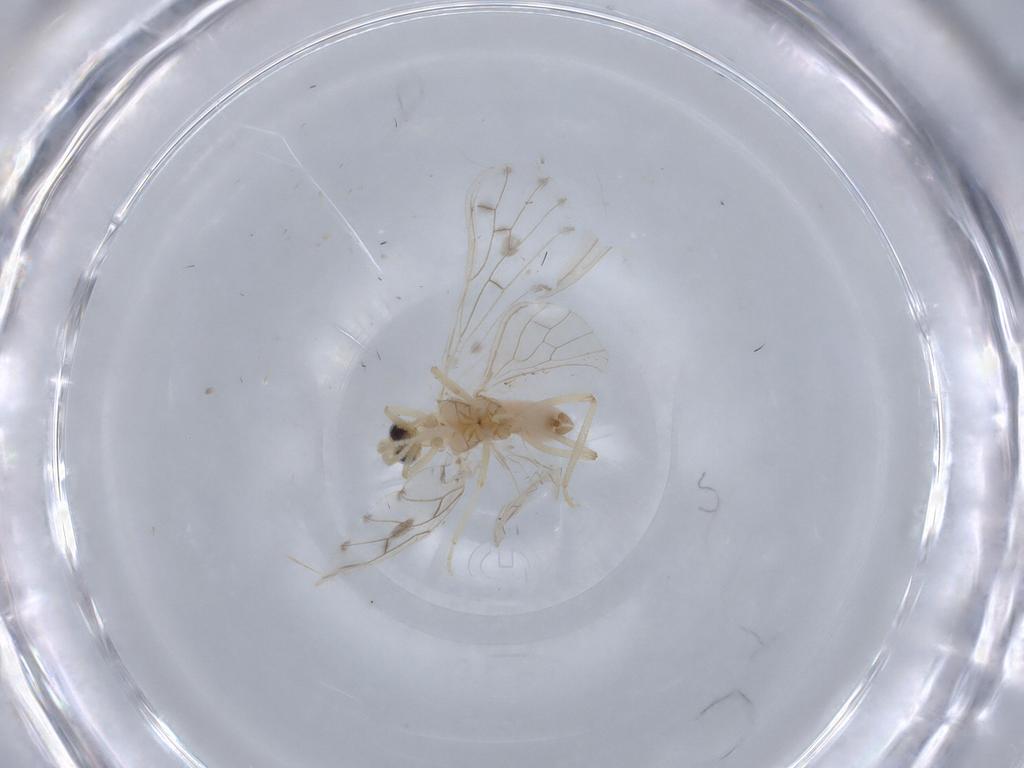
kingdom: Animalia
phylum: Arthropoda
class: Insecta
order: Neuroptera
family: Coniopterygidae
